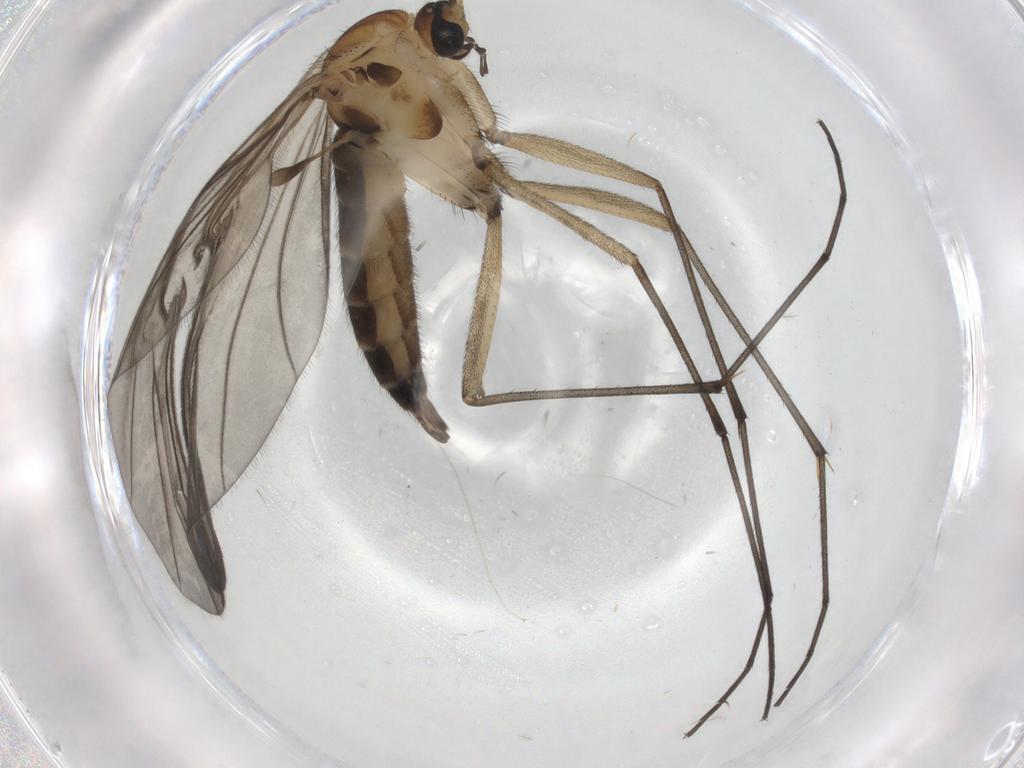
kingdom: Animalia
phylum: Arthropoda
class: Insecta
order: Diptera
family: Sciaridae
